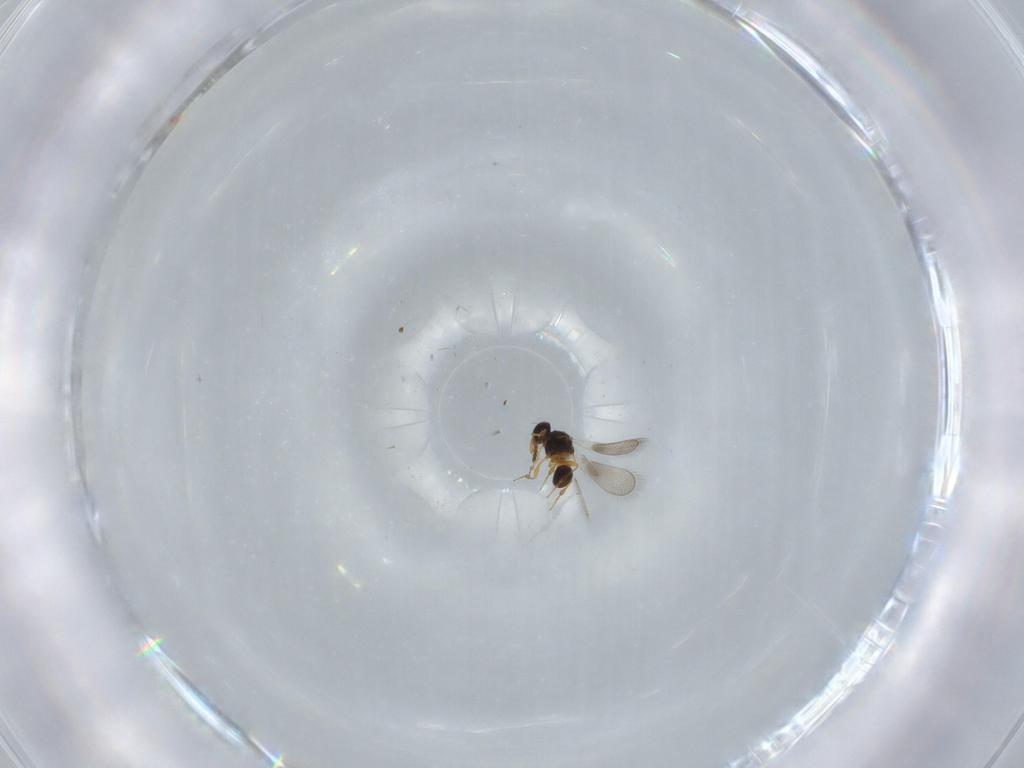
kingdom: Animalia
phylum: Arthropoda
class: Insecta
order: Hymenoptera
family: Platygastridae
